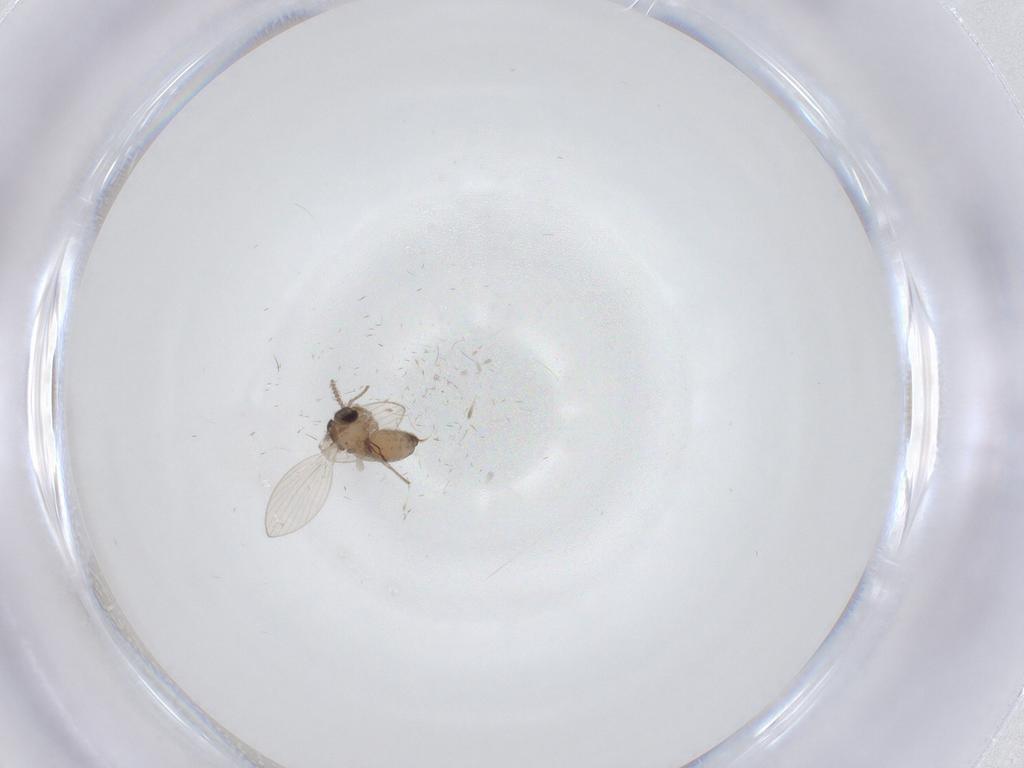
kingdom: Animalia
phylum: Arthropoda
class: Insecta
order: Diptera
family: Psychodidae
